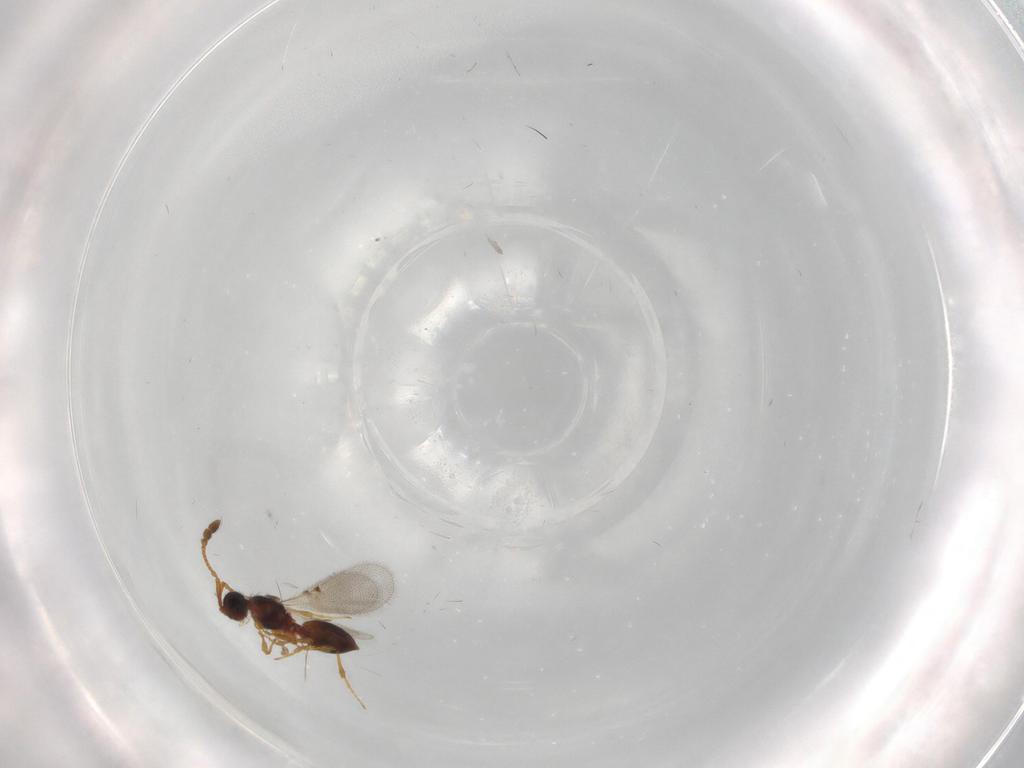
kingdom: Animalia
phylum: Arthropoda
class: Insecta
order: Hymenoptera
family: Diapriidae
